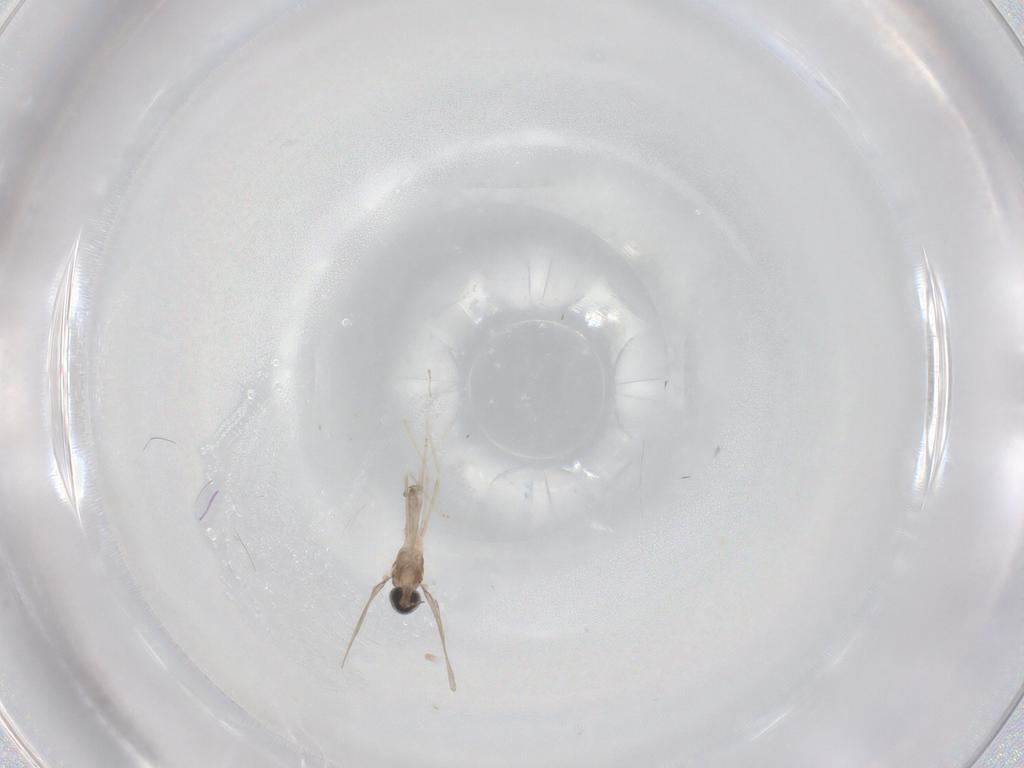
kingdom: Animalia
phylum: Arthropoda
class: Insecta
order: Diptera
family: Cecidomyiidae
